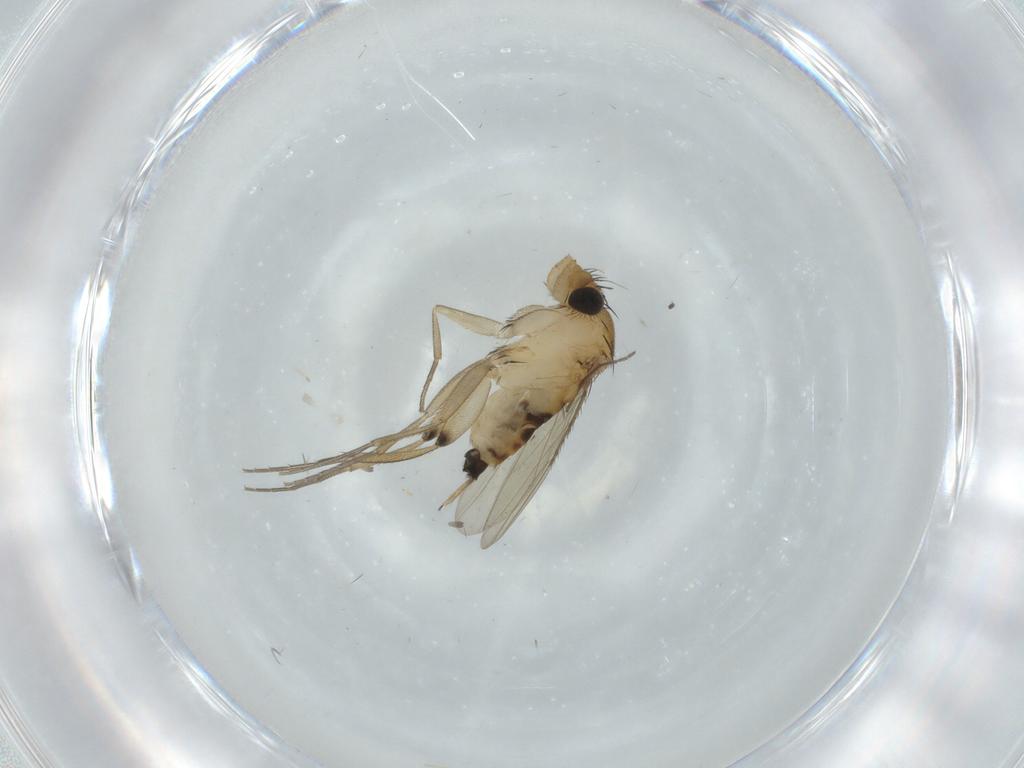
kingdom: Animalia
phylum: Arthropoda
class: Insecta
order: Diptera
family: Phoridae
